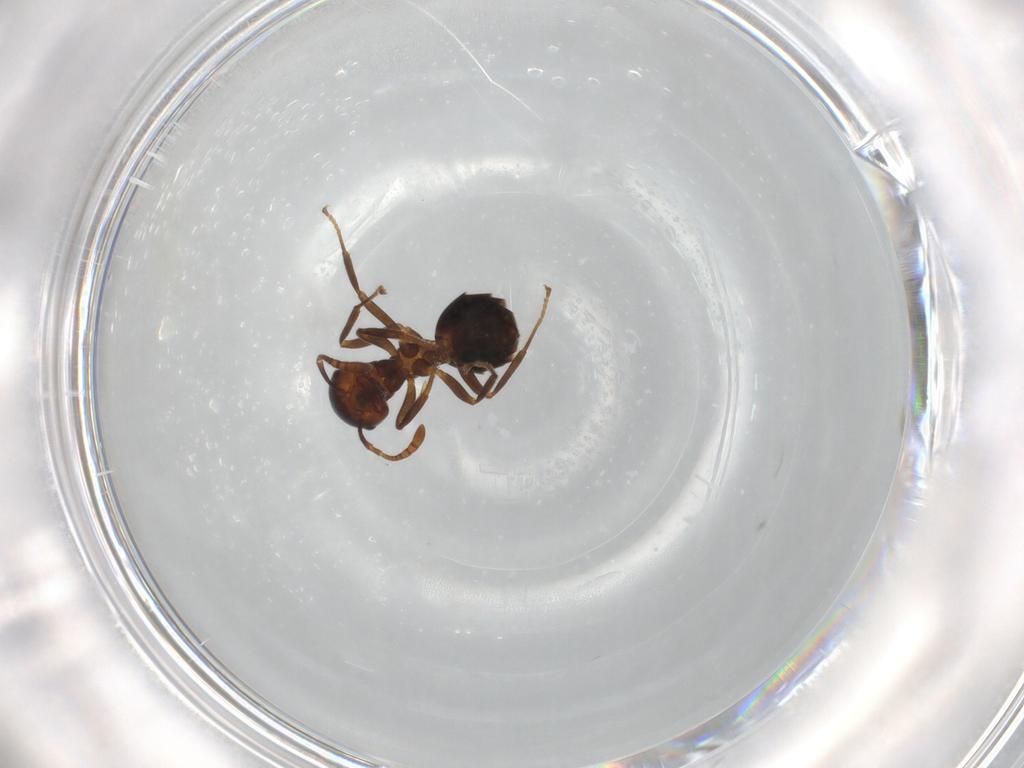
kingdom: Animalia
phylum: Arthropoda
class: Insecta
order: Hymenoptera
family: Formicidae
